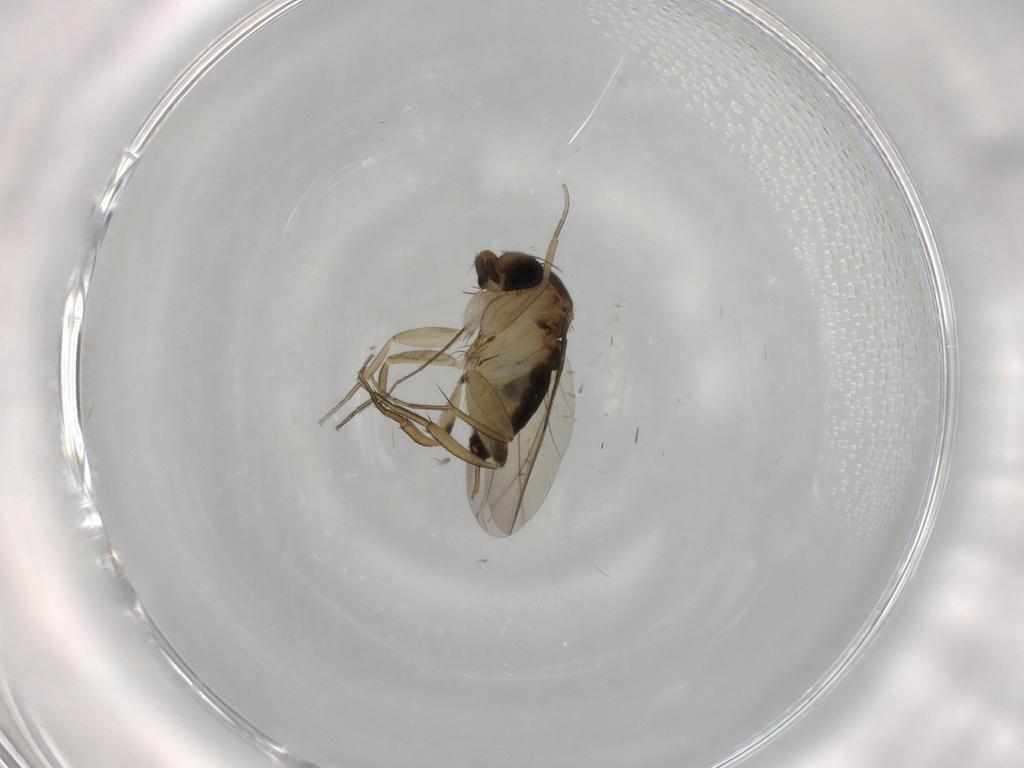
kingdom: Animalia
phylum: Arthropoda
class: Insecta
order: Diptera
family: Phoridae
